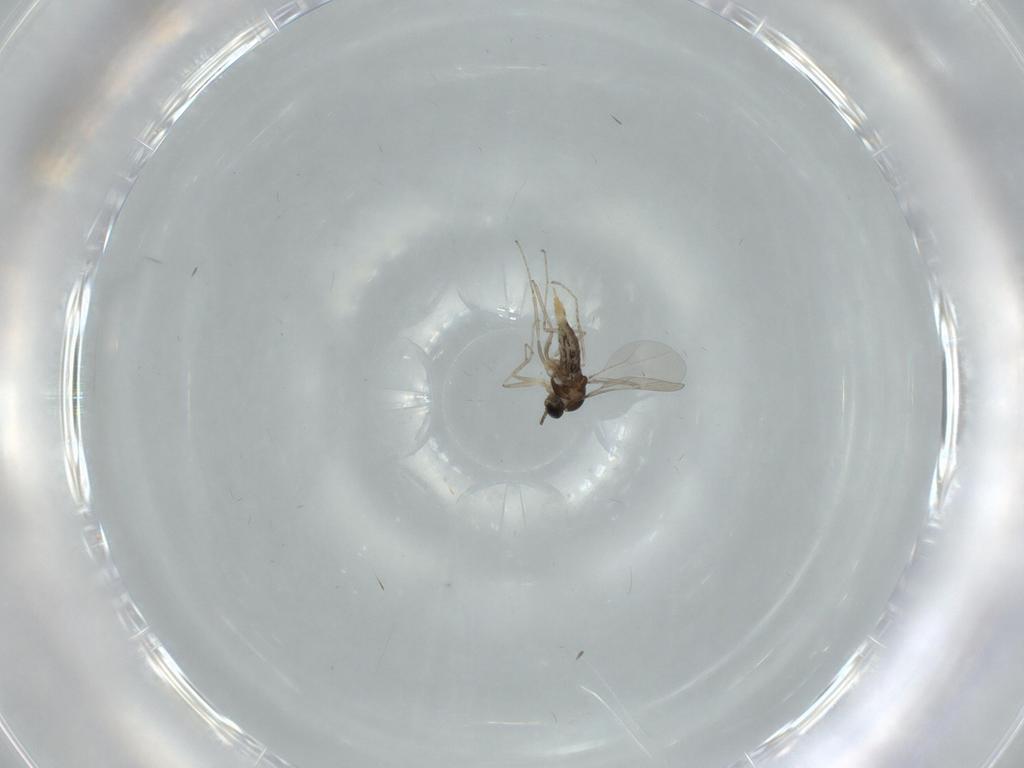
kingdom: Animalia
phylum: Arthropoda
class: Insecta
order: Diptera
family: Cecidomyiidae
